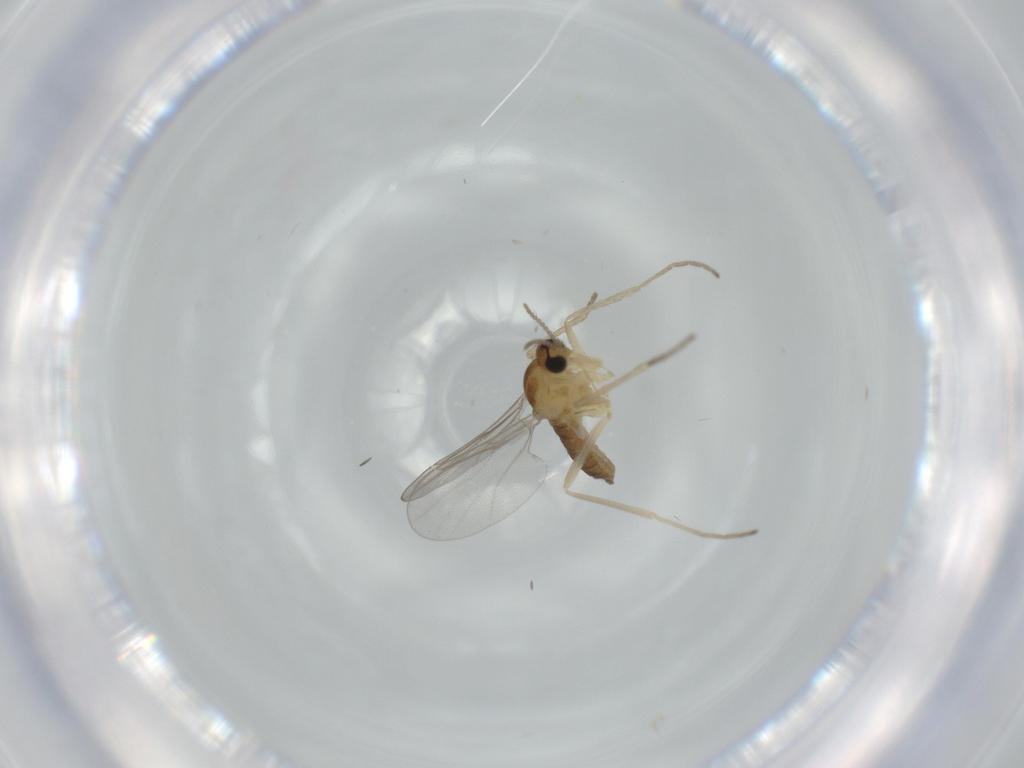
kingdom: Animalia
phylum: Arthropoda
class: Insecta
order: Diptera
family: Cecidomyiidae
